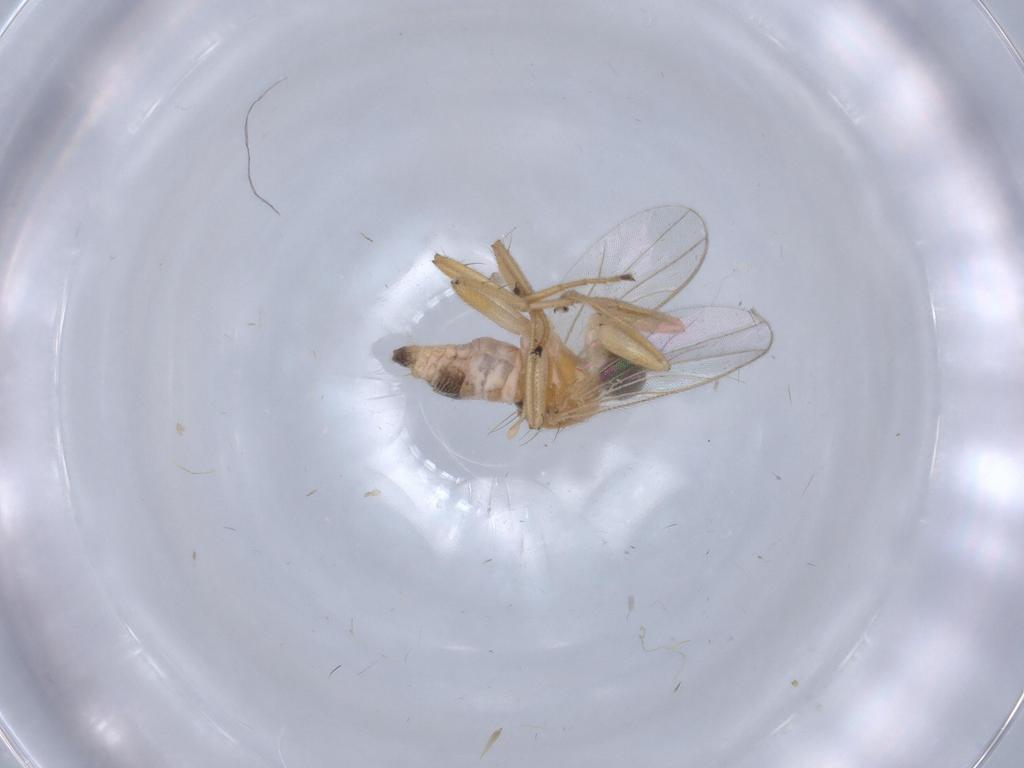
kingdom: Animalia
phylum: Arthropoda
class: Insecta
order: Diptera
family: Hybotidae
